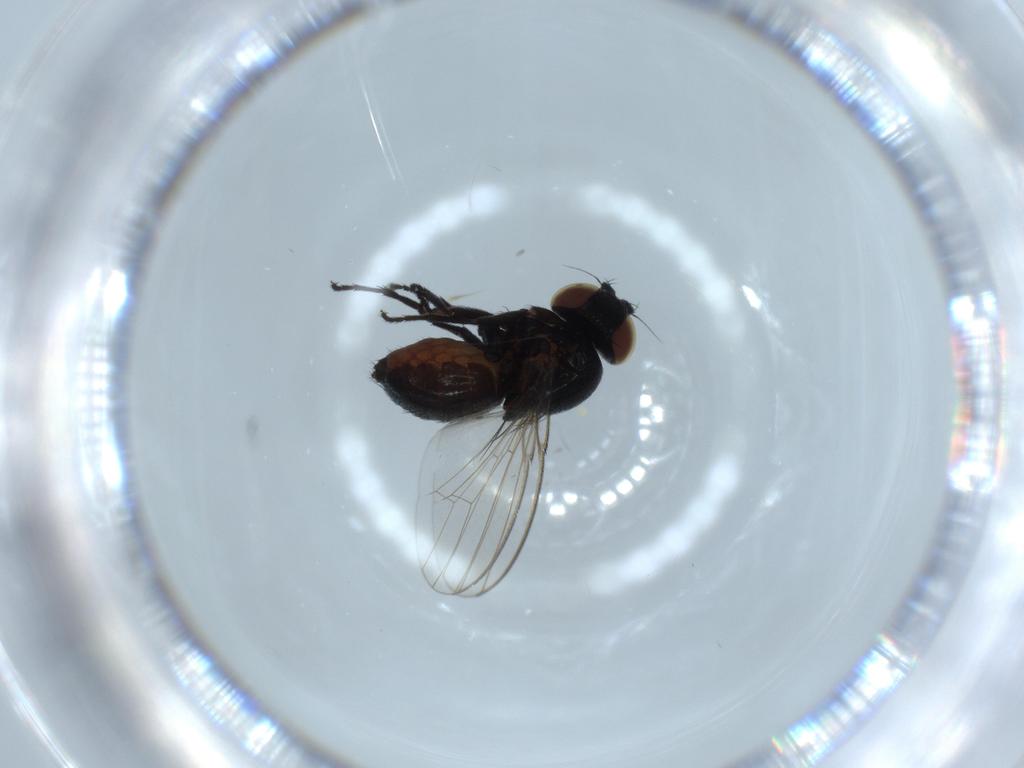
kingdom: Animalia
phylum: Arthropoda
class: Insecta
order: Diptera
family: Milichiidae
